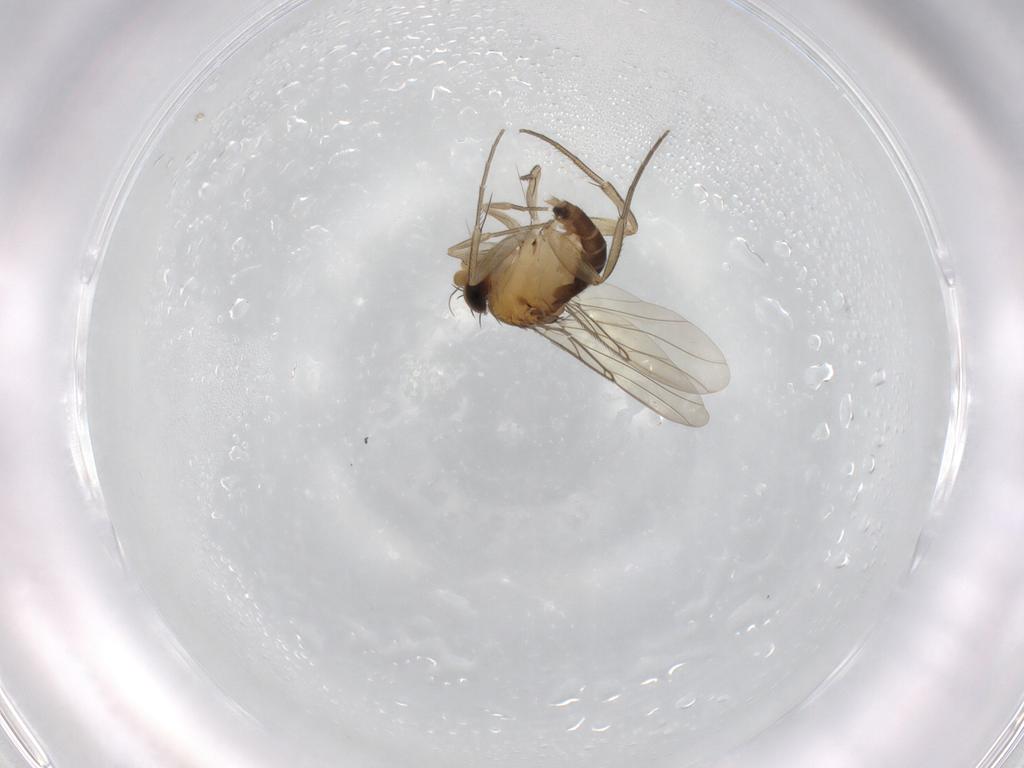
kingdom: Animalia
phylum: Arthropoda
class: Insecta
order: Diptera
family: Phoridae
